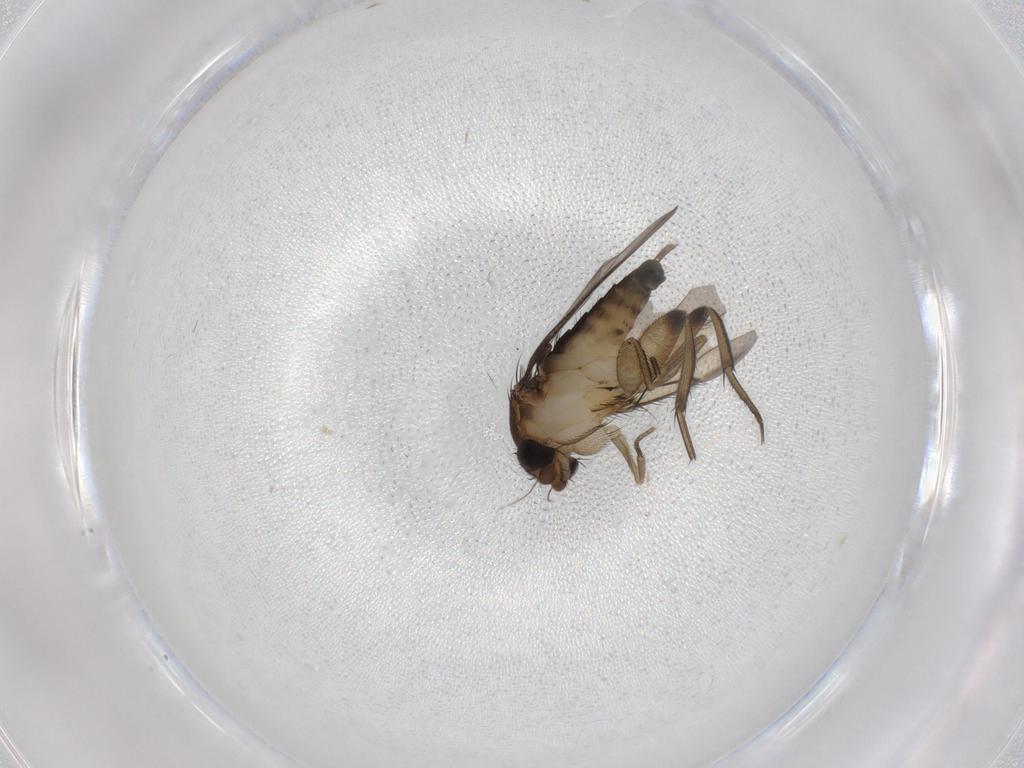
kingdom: Animalia
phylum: Arthropoda
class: Insecta
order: Diptera
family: Phoridae
